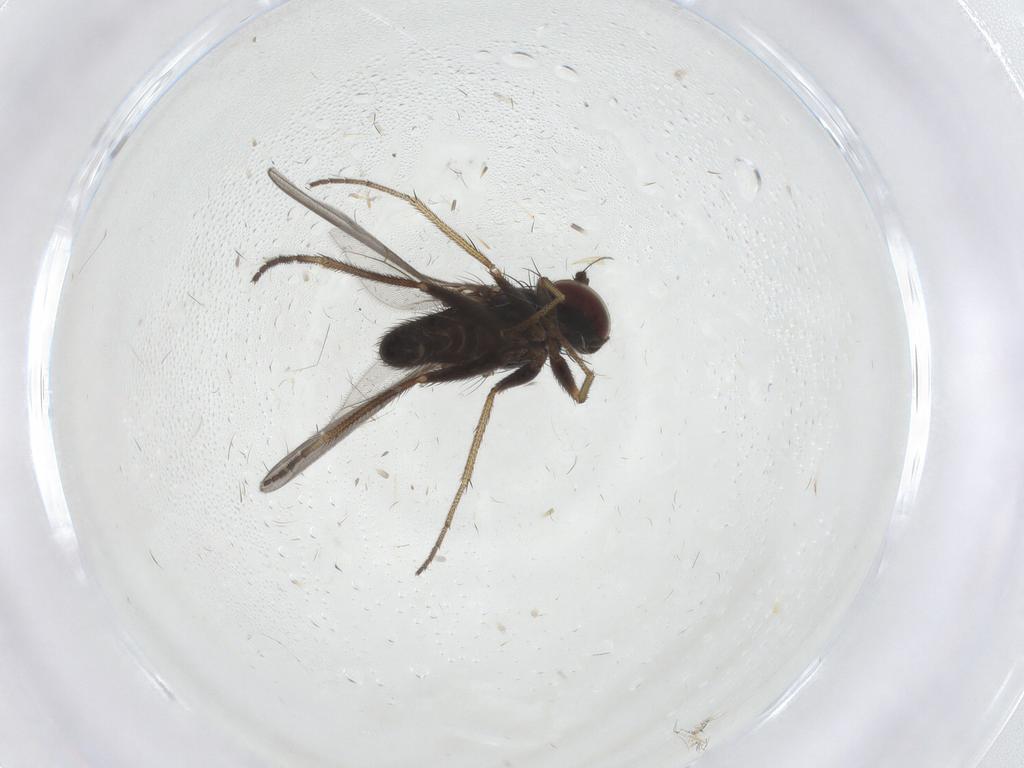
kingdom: Animalia
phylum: Arthropoda
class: Insecta
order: Diptera
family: Dolichopodidae
